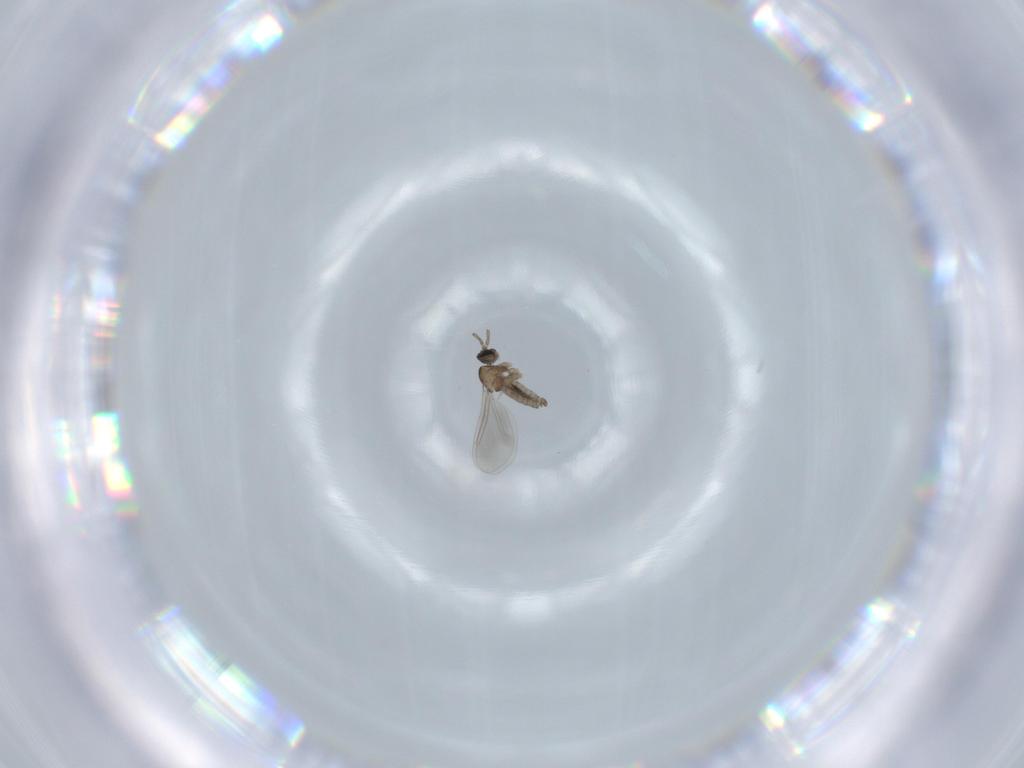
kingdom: Animalia
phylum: Arthropoda
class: Insecta
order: Diptera
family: Cecidomyiidae
